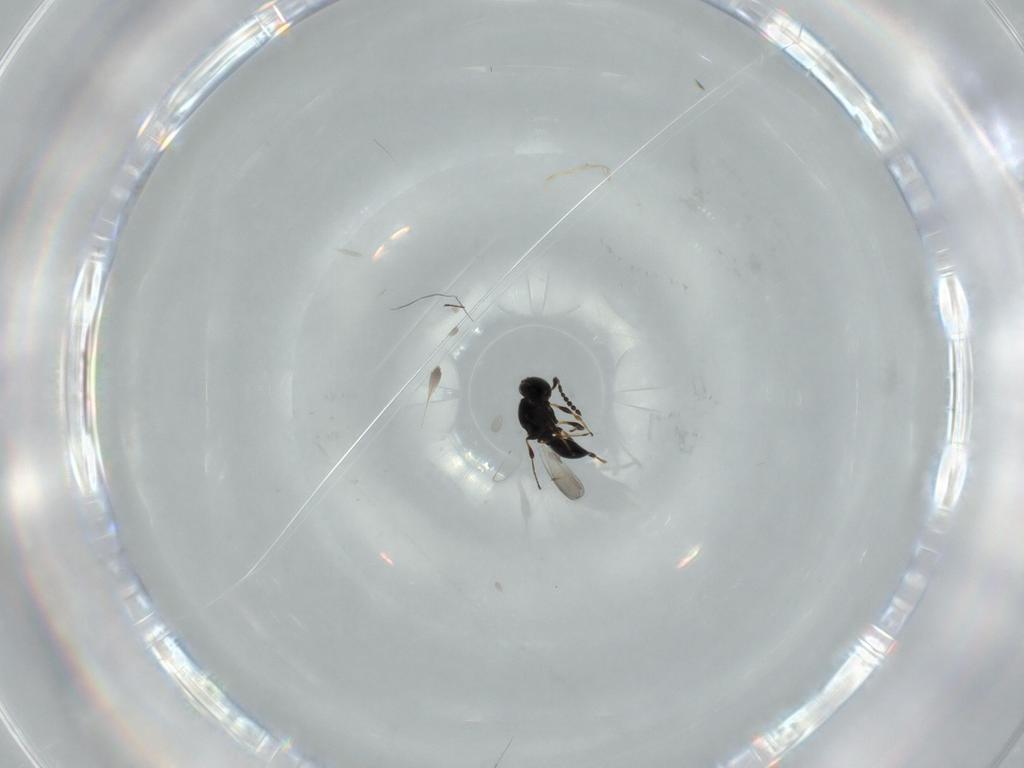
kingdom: Animalia
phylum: Arthropoda
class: Insecta
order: Hymenoptera
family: Platygastridae
